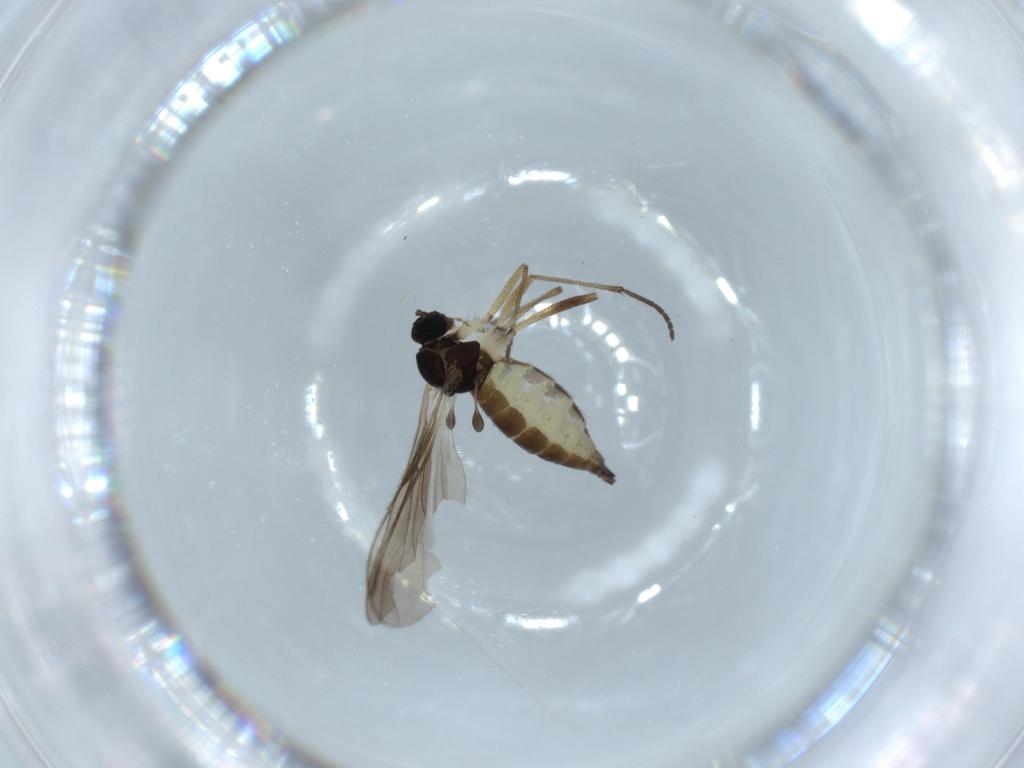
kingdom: Animalia
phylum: Arthropoda
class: Insecta
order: Diptera
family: Sciaridae
